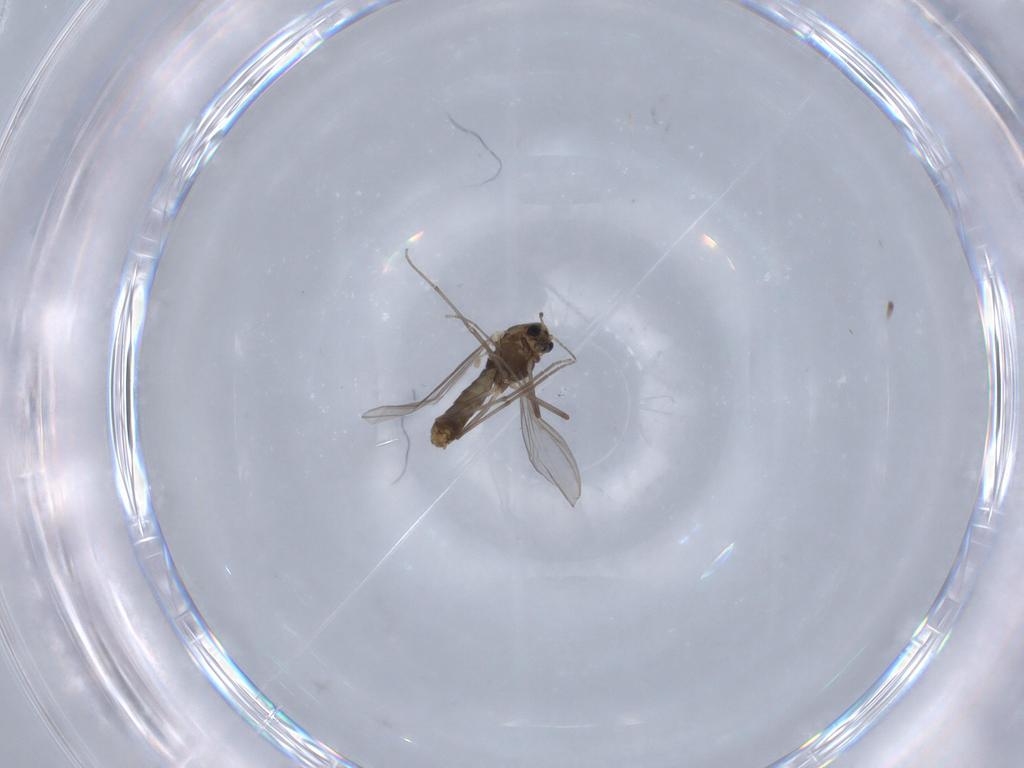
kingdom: Animalia
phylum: Arthropoda
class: Insecta
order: Diptera
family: Chironomidae
